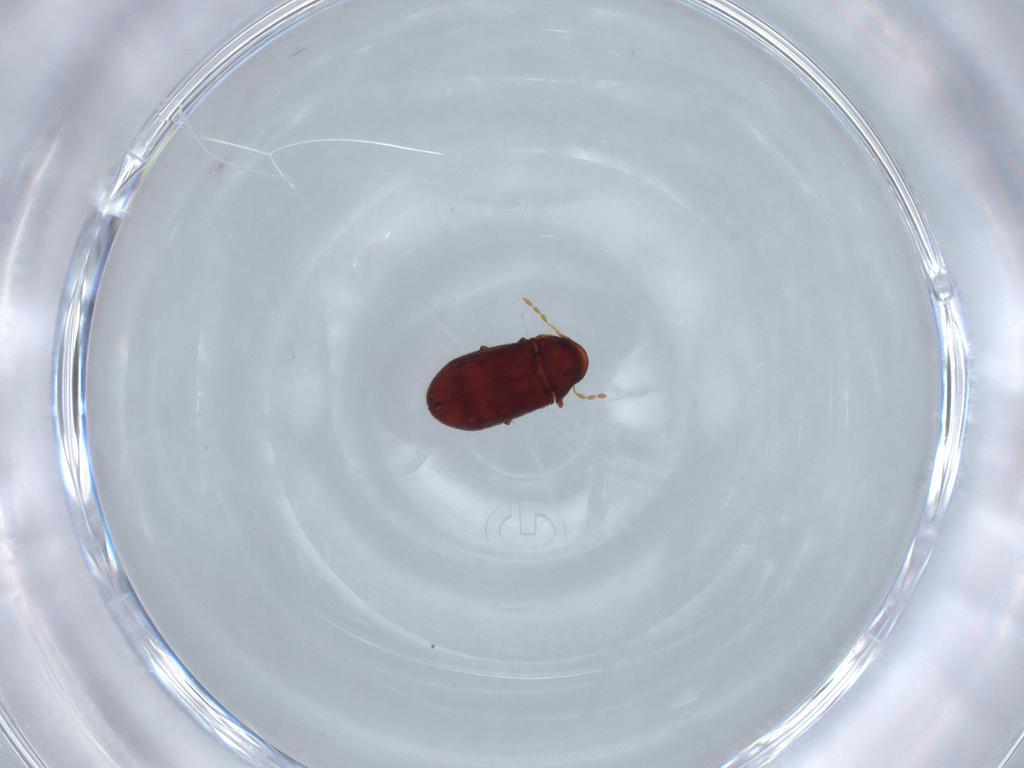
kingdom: Animalia
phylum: Arthropoda
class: Insecta
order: Coleoptera
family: Ptinidae
